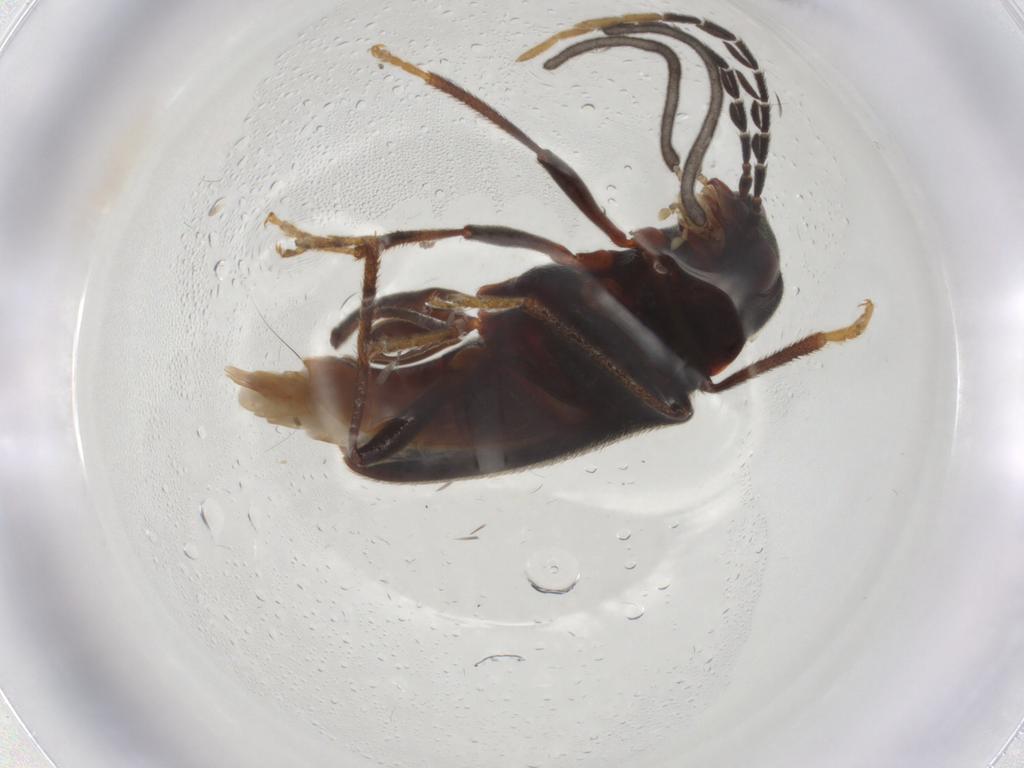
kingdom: Animalia
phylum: Arthropoda
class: Insecta
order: Coleoptera
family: Ptilodactylidae
